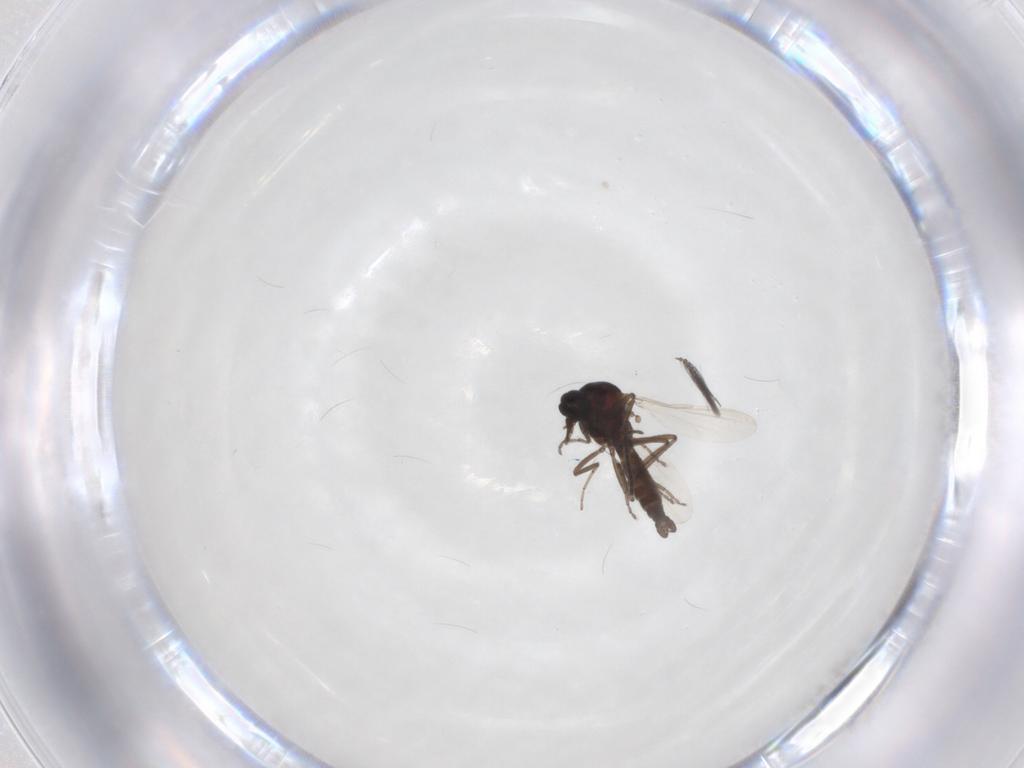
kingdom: Animalia
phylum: Arthropoda
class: Insecta
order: Diptera
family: Ceratopogonidae
